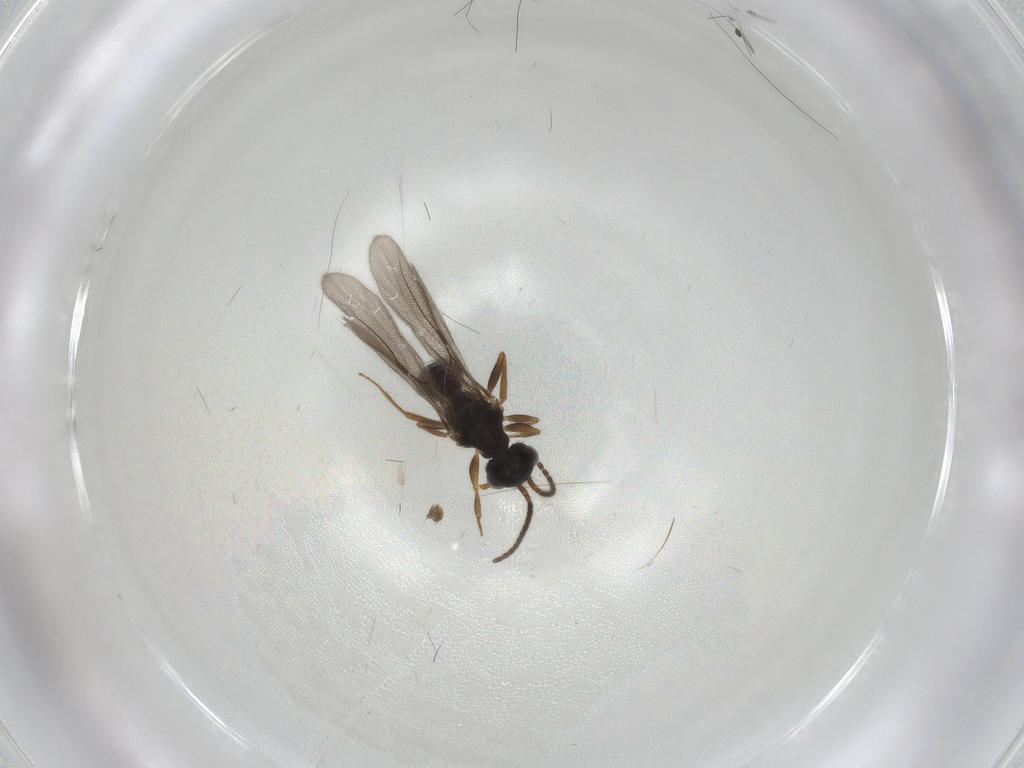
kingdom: Animalia
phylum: Arthropoda
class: Insecta
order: Hymenoptera
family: Bethylidae
